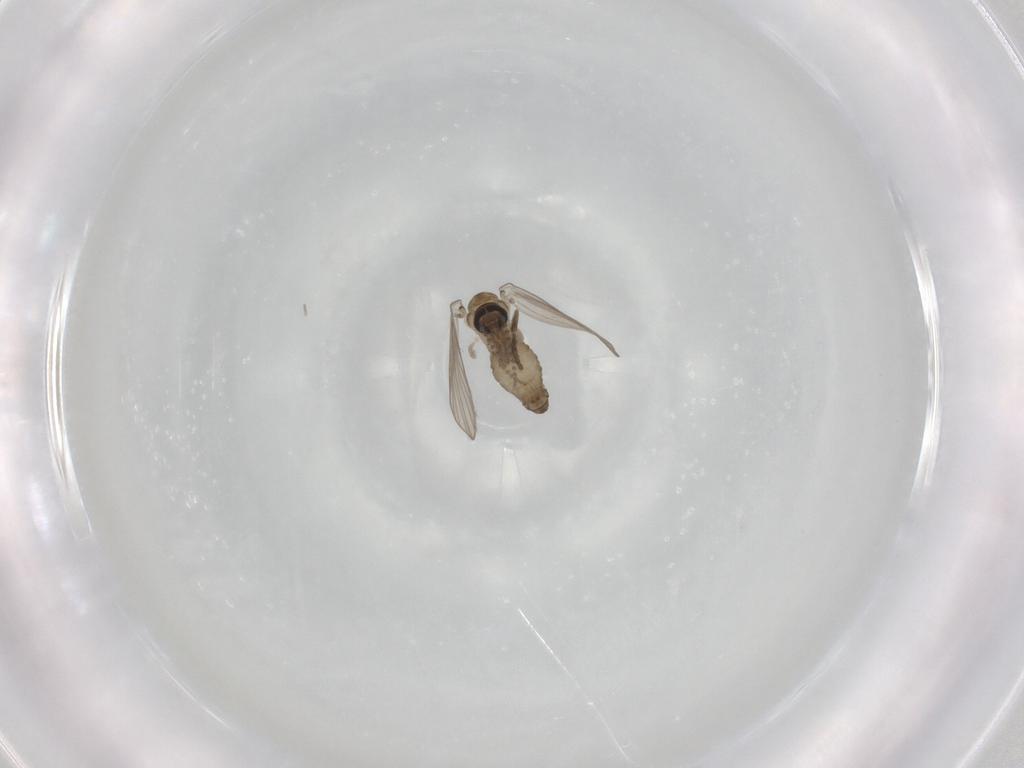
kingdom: Animalia
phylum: Arthropoda
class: Insecta
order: Diptera
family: Psychodidae
